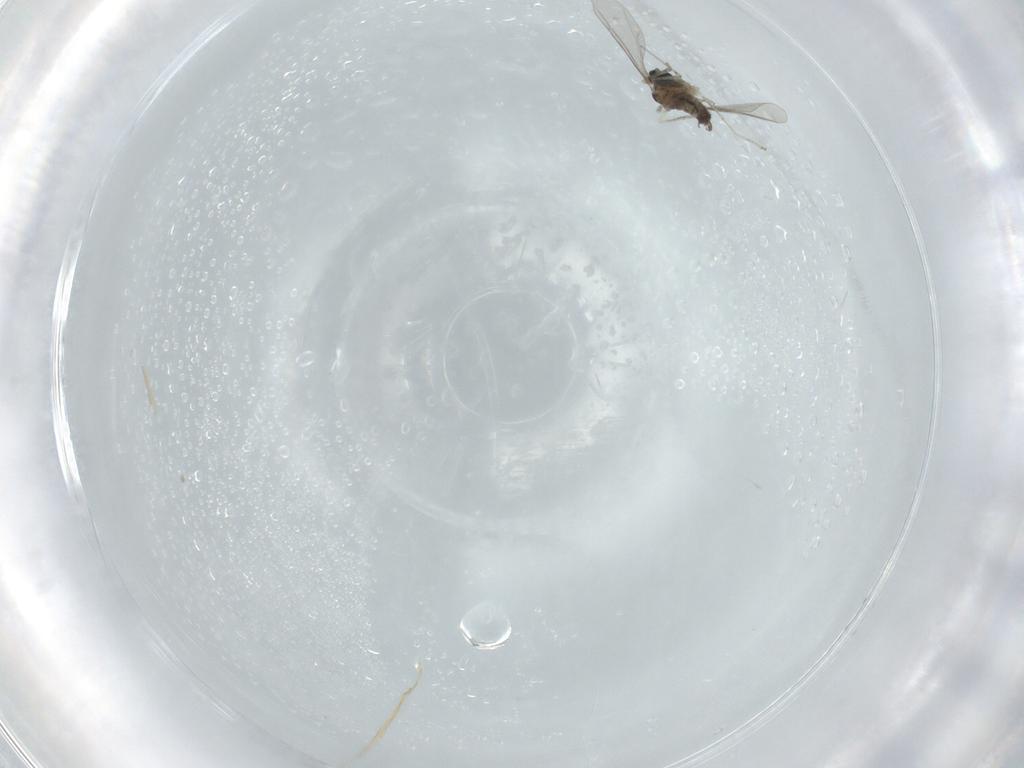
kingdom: Animalia
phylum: Arthropoda
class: Insecta
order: Diptera
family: Cecidomyiidae
